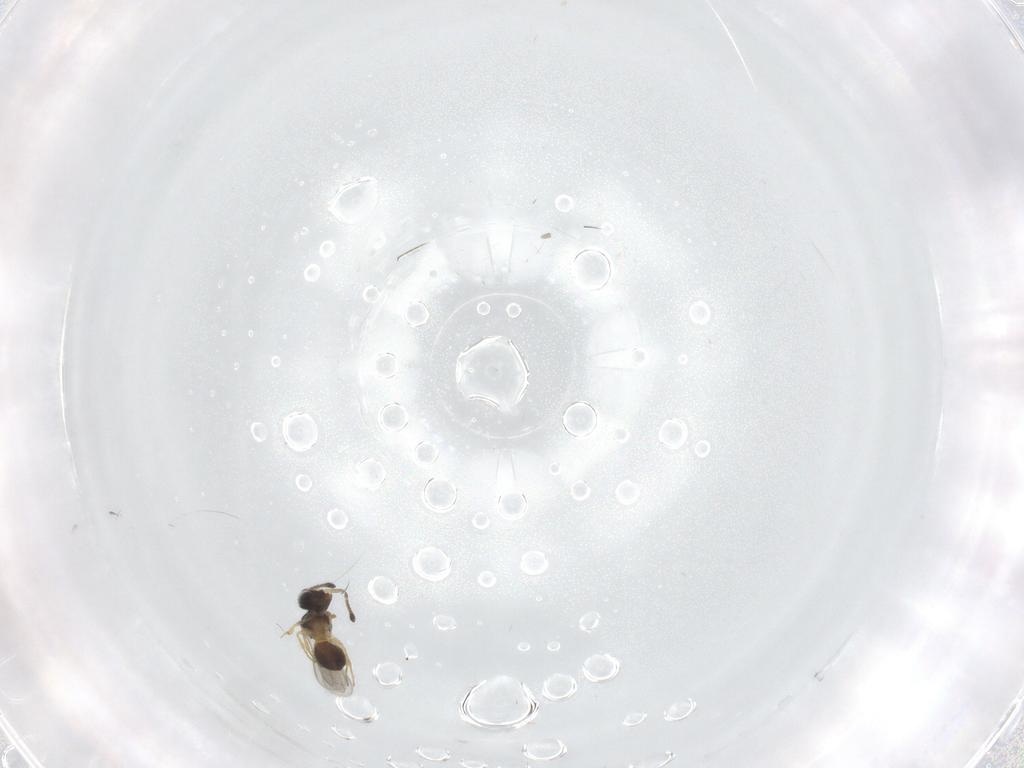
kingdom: Animalia
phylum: Arthropoda
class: Insecta
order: Hymenoptera
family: Scelionidae
